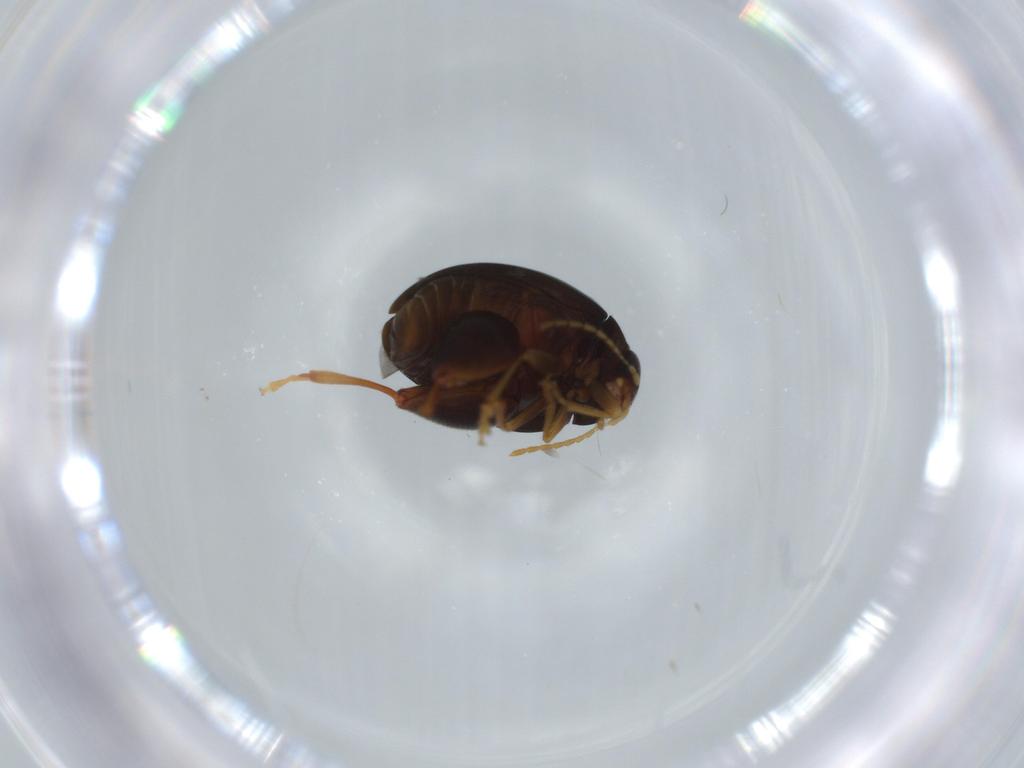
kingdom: Animalia
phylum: Arthropoda
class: Insecta
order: Coleoptera
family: Chrysomelidae
